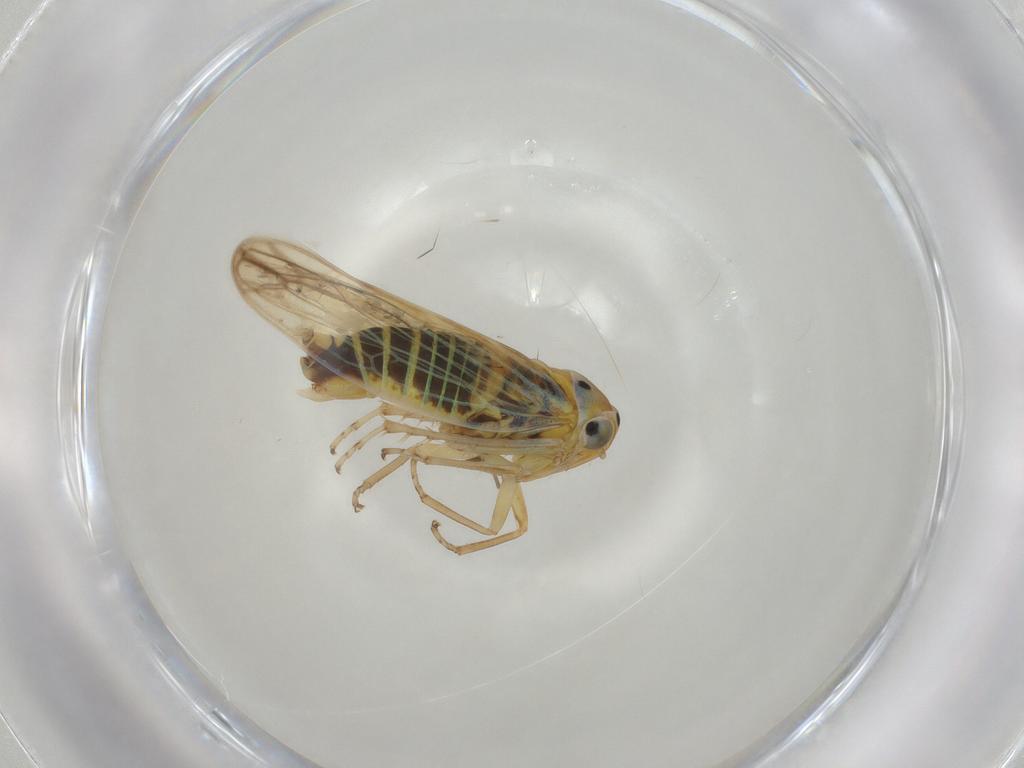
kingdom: Animalia
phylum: Arthropoda
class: Insecta
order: Hemiptera
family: Cicadellidae
